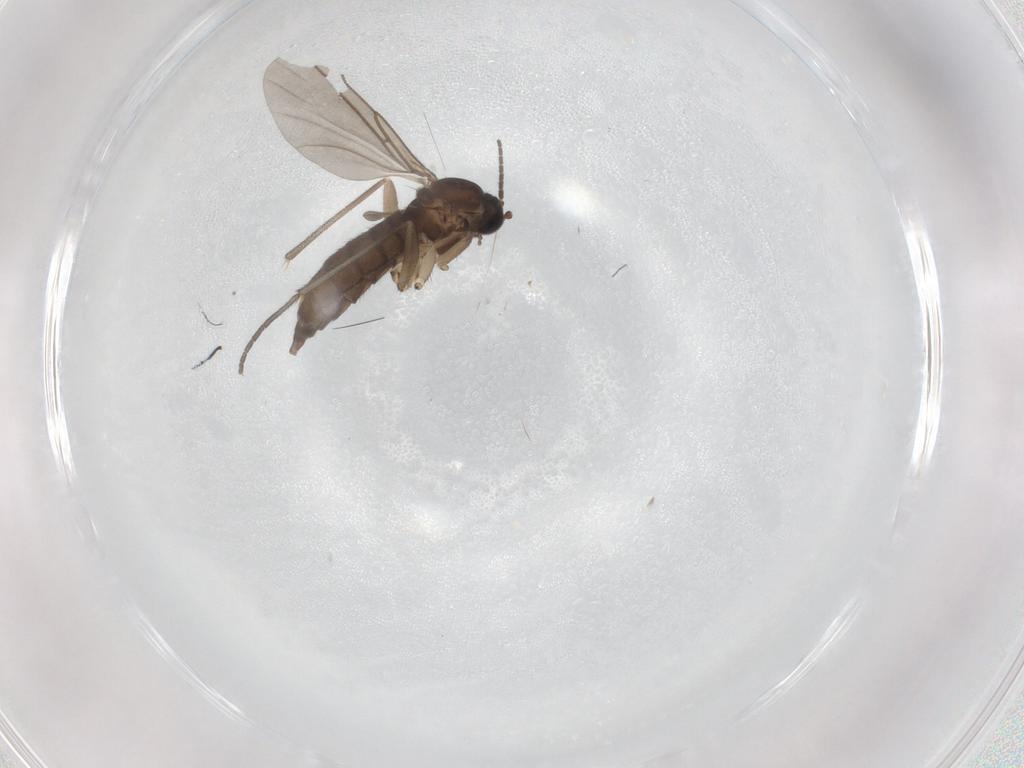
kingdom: Animalia
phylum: Arthropoda
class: Insecta
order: Diptera
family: Sciaridae
